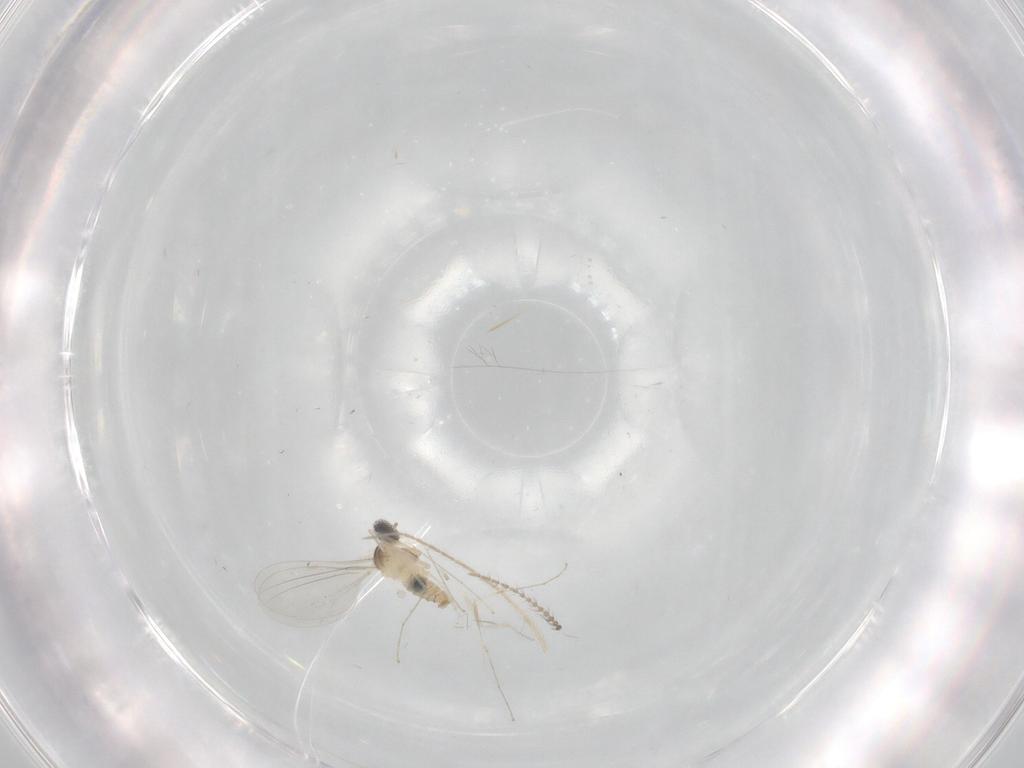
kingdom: Animalia
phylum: Arthropoda
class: Insecta
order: Diptera
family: Cecidomyiidae
